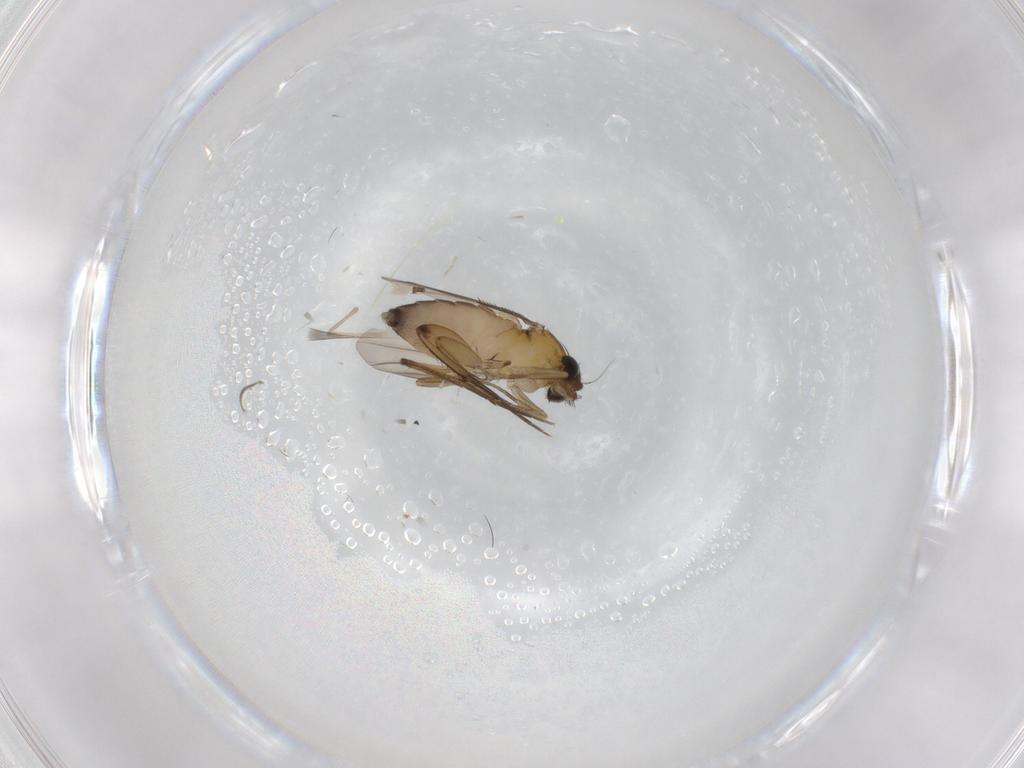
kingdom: Animalia
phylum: Arthropoda
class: Insecta
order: Diptera
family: Phoridae
